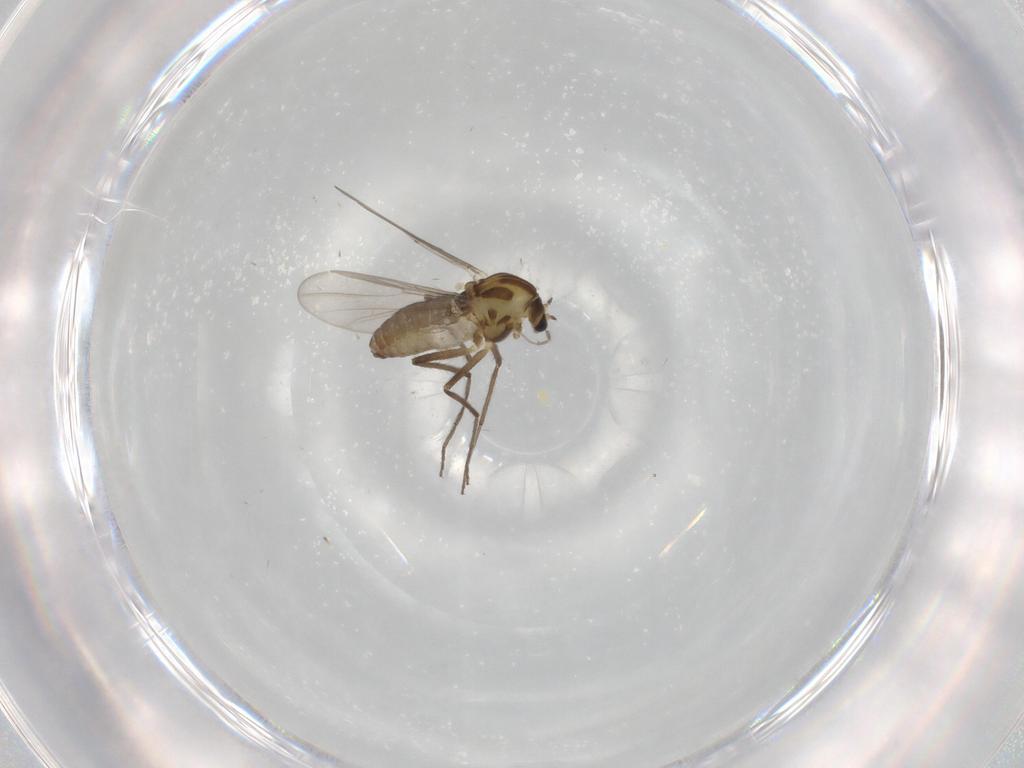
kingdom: Animalia
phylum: Arthropoda
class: Insecta
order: Diptera
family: Chironomidae
